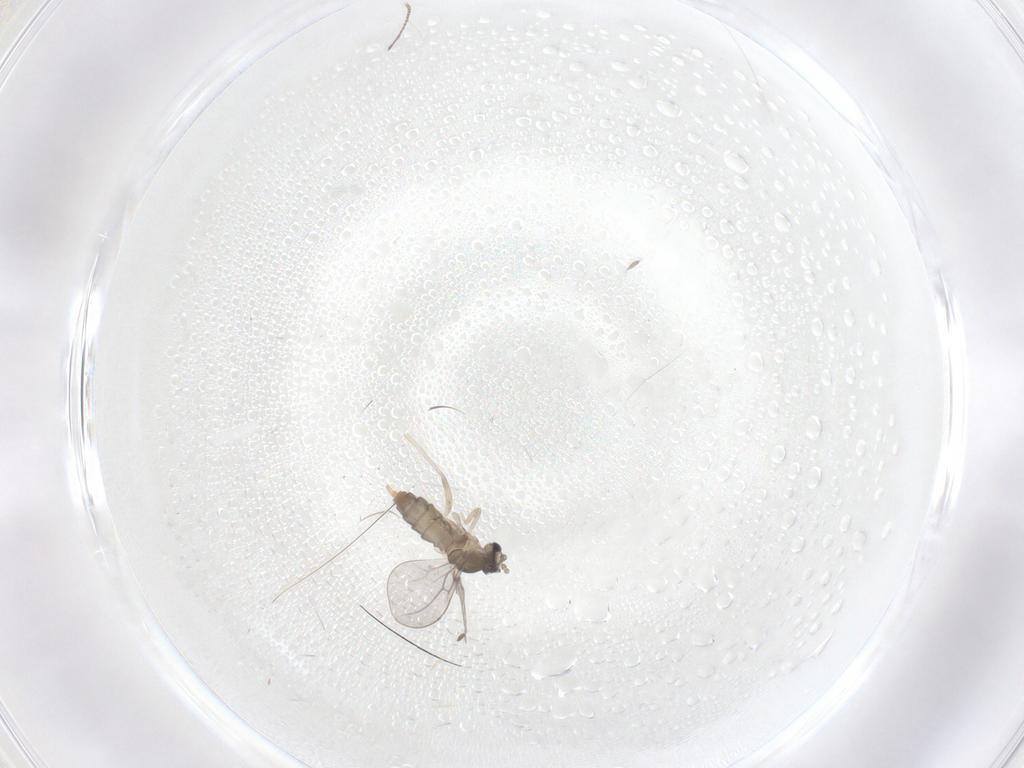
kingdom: Animalia
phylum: Arthropoda
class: Insecta
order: Diptera
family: Cecidomyiidae
